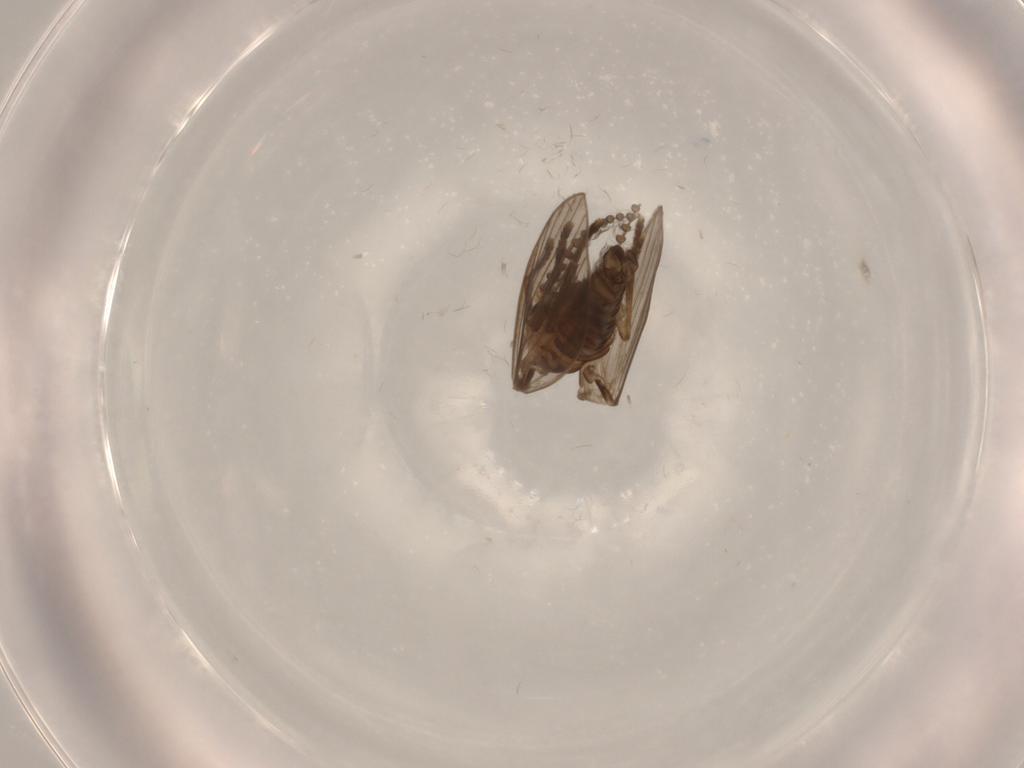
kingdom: Animalia
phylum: Arthropoda
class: Insecta
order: Diptera
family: Psychodidae
